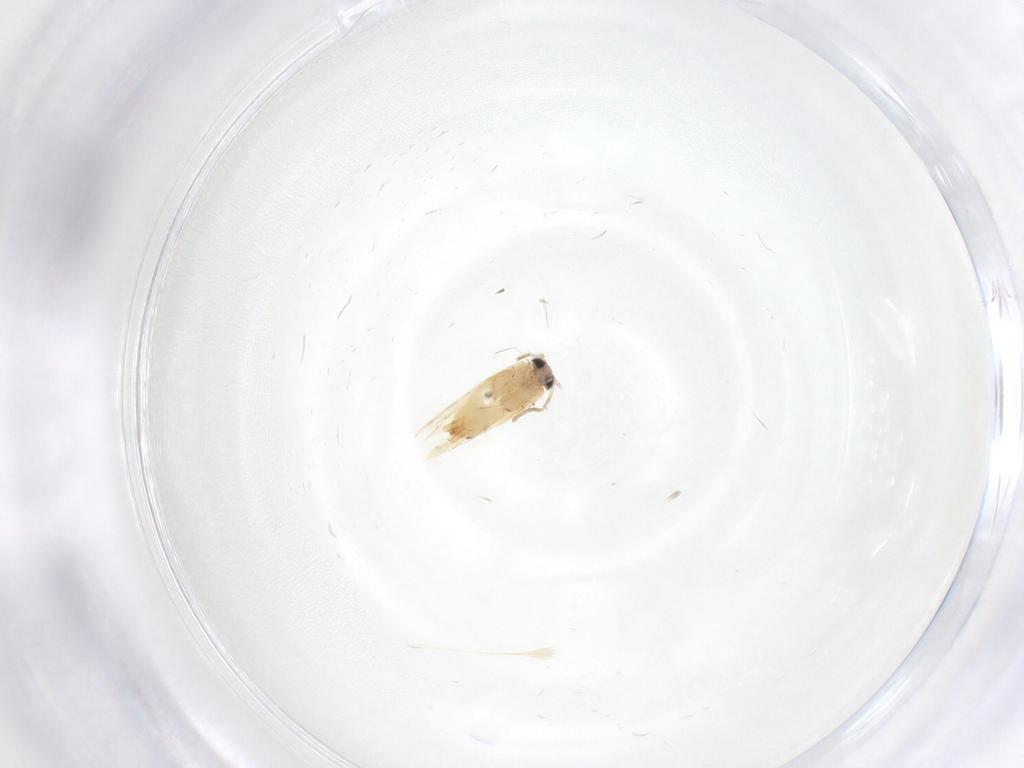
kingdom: Animalia
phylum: Arthropoda
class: Insecta
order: Lepidoptera
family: Crambidae
